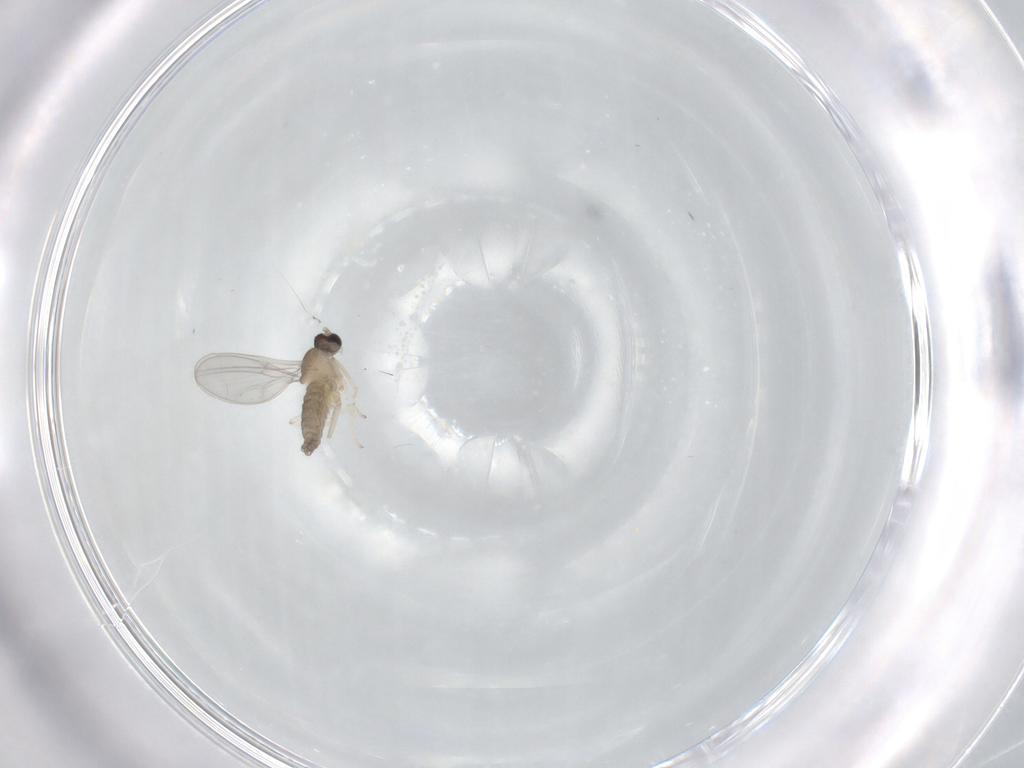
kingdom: Animalia
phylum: Arthropoda
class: Insecta
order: Diptera
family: Cecidomyiidae
